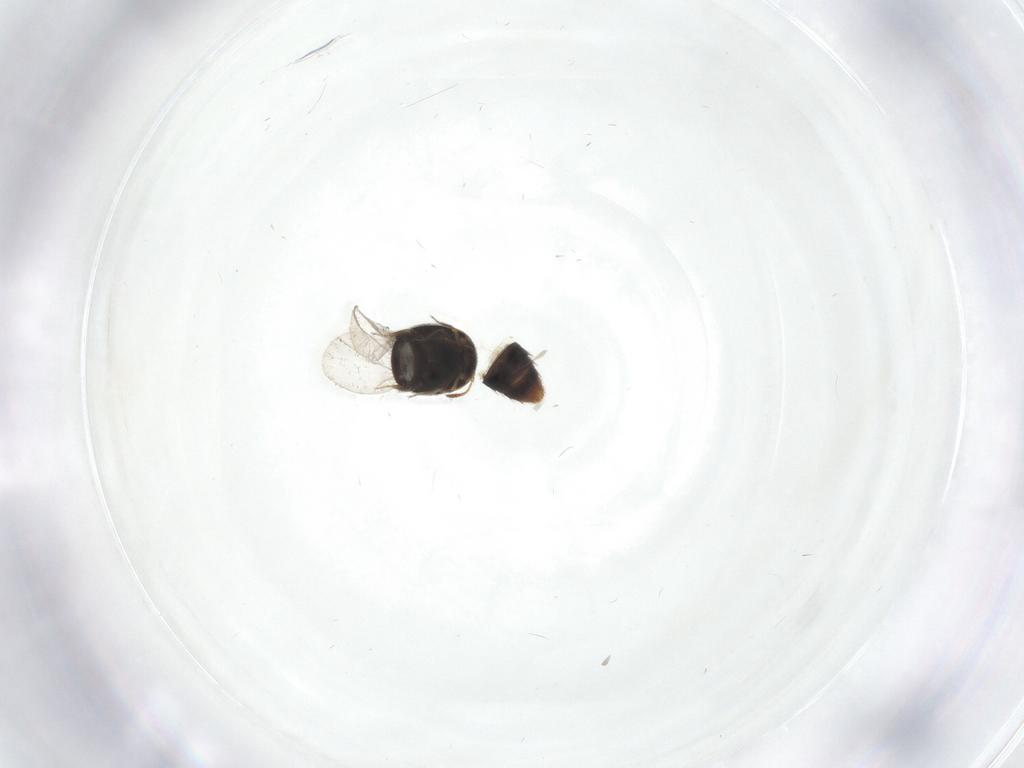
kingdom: Animalia
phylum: Arthropoda
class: Insecta
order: Coleoptera
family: Staphylinidae
